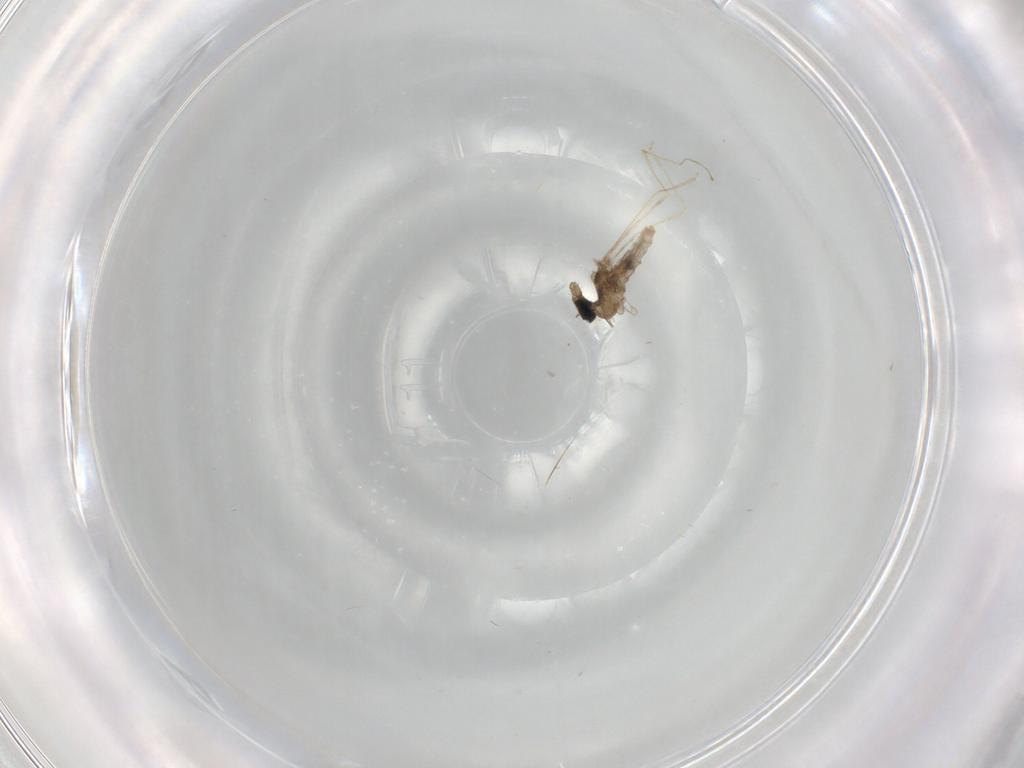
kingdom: Animalia
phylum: Arthropoda
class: Insecta
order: Diptera
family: Cecidomyiidae
